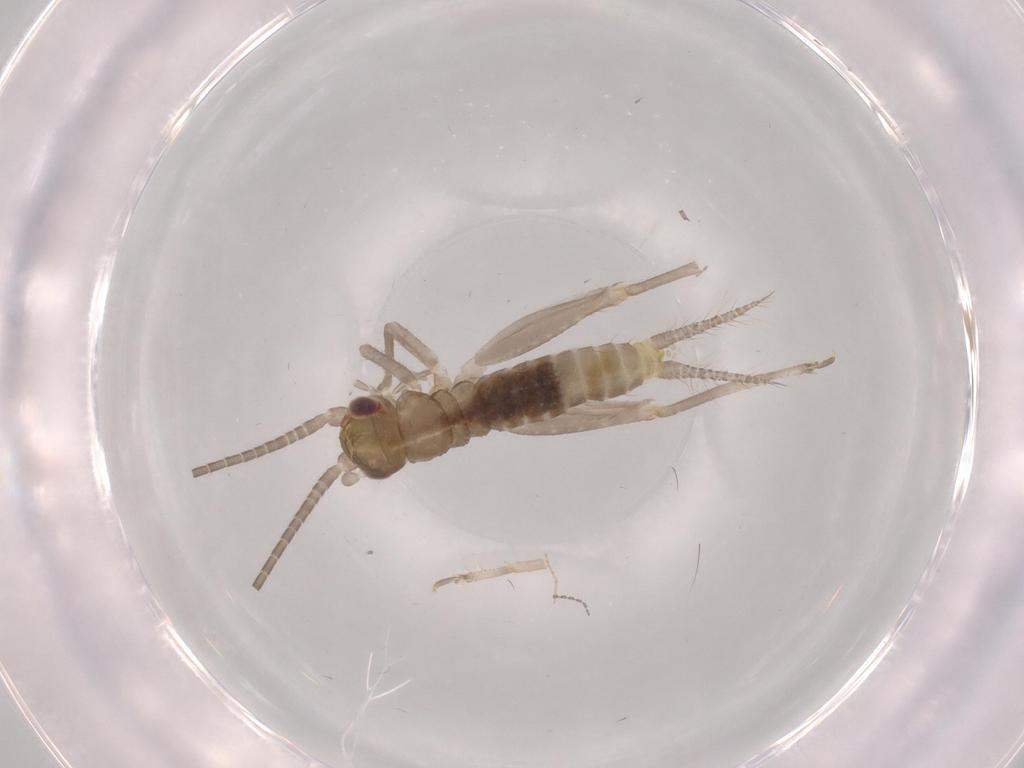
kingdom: Animalia
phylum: Arthropoda
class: Insecta
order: Orthoptera
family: Gryllidae
